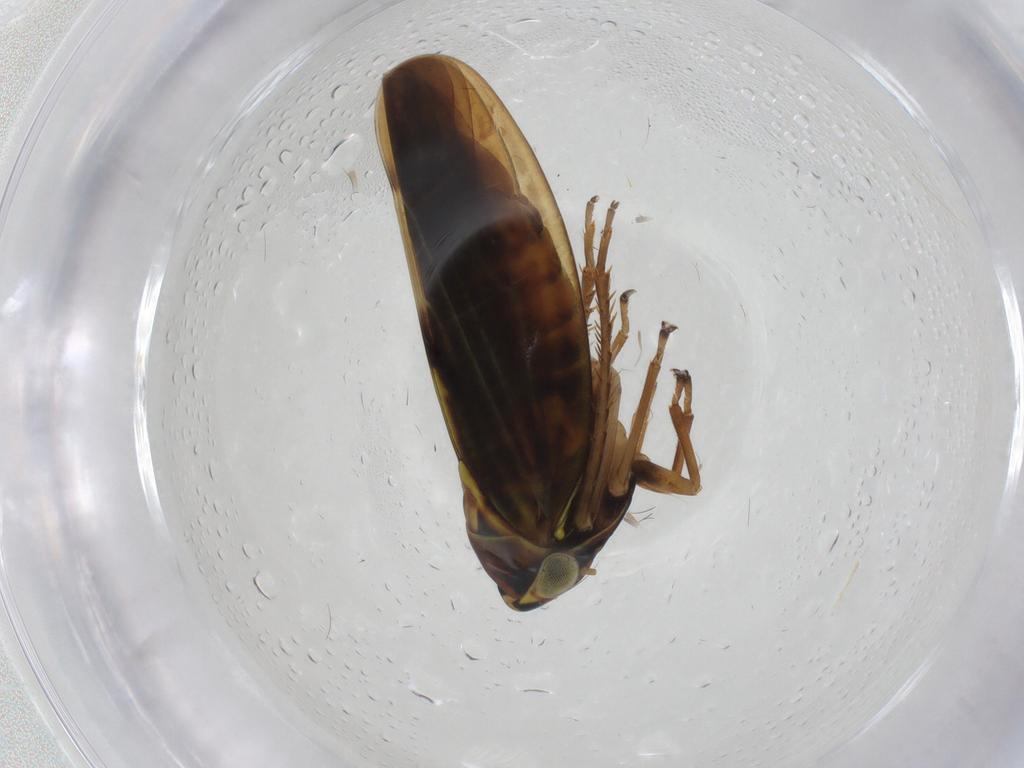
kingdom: Animalia
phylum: Arthropoda
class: Insecta
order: Hemiptera
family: Cicadellidae
